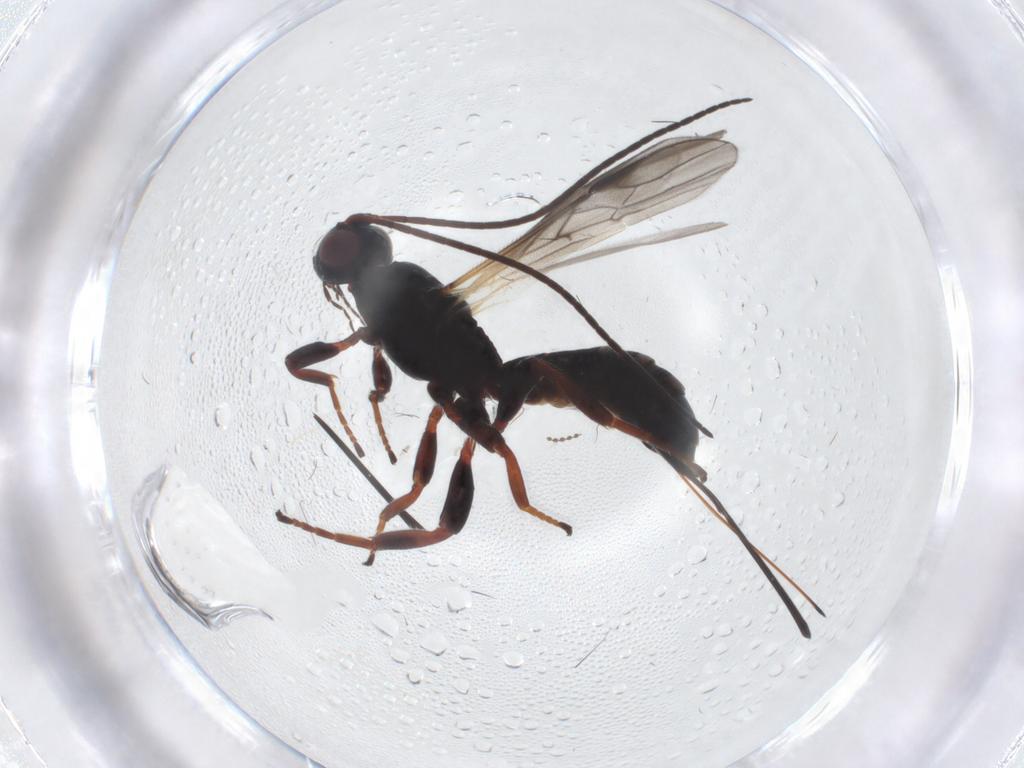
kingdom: Animalia
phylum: Arthropoda
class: Insecta
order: Hymenoptera
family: Braconidae
